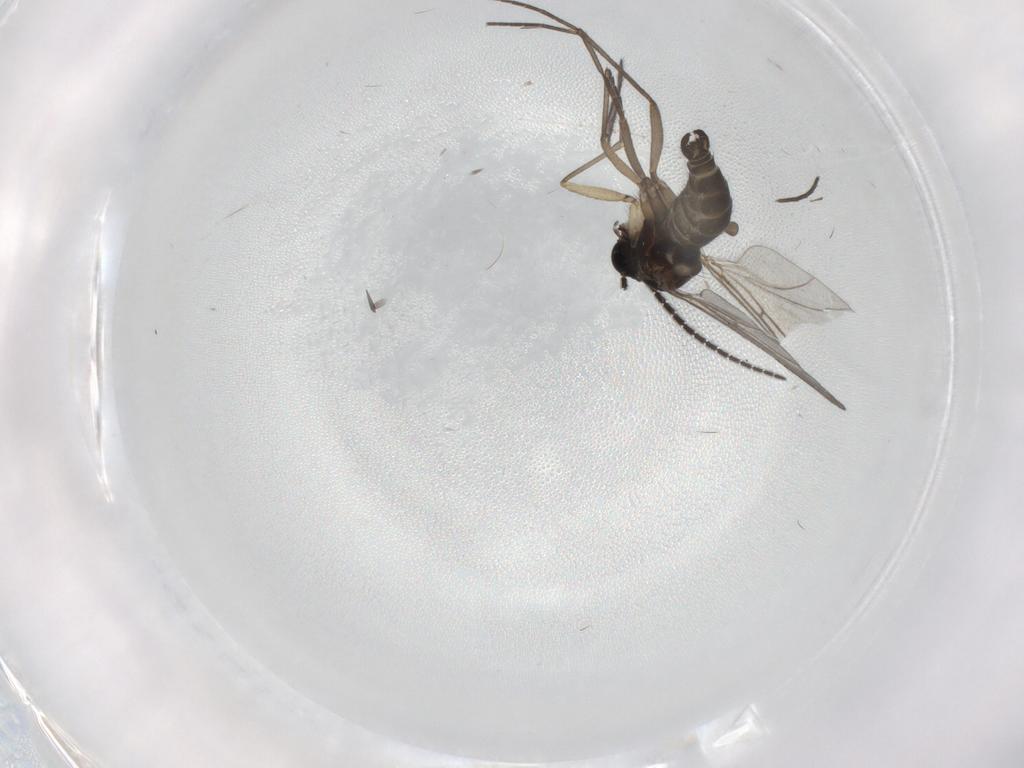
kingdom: Animalia
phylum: Arthropoda
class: Insecta
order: Diptera
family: Sciaridae
